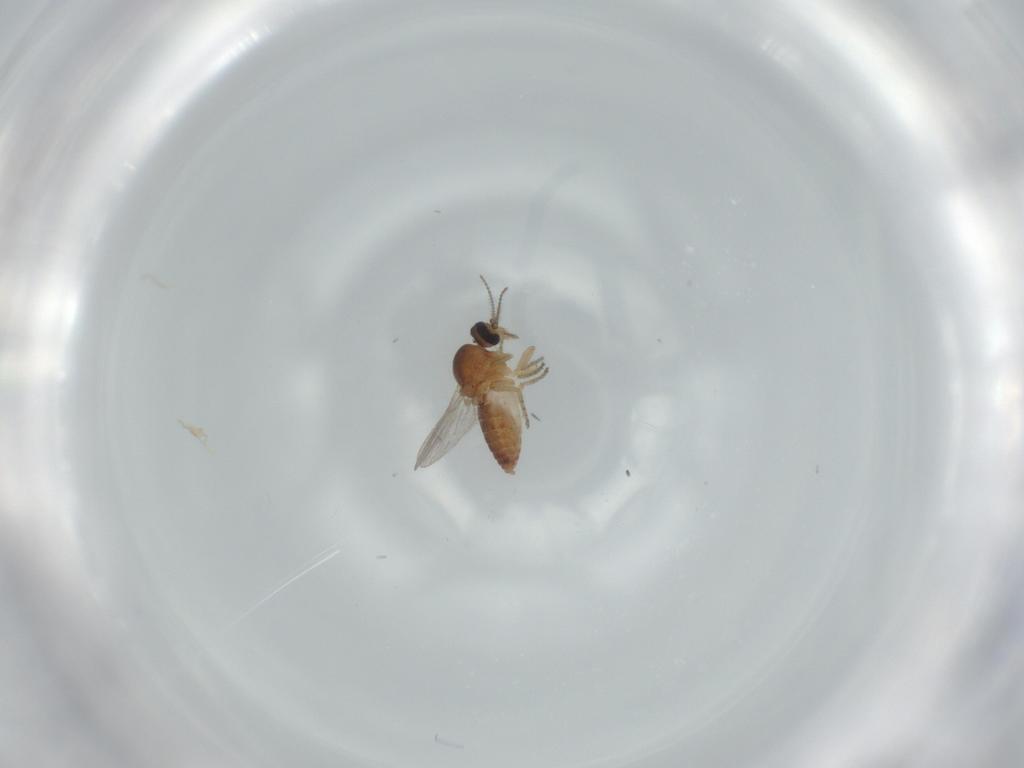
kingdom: Animalia
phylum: Arthropoda
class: Insecta
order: Diptera
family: Ceratopogonidae
